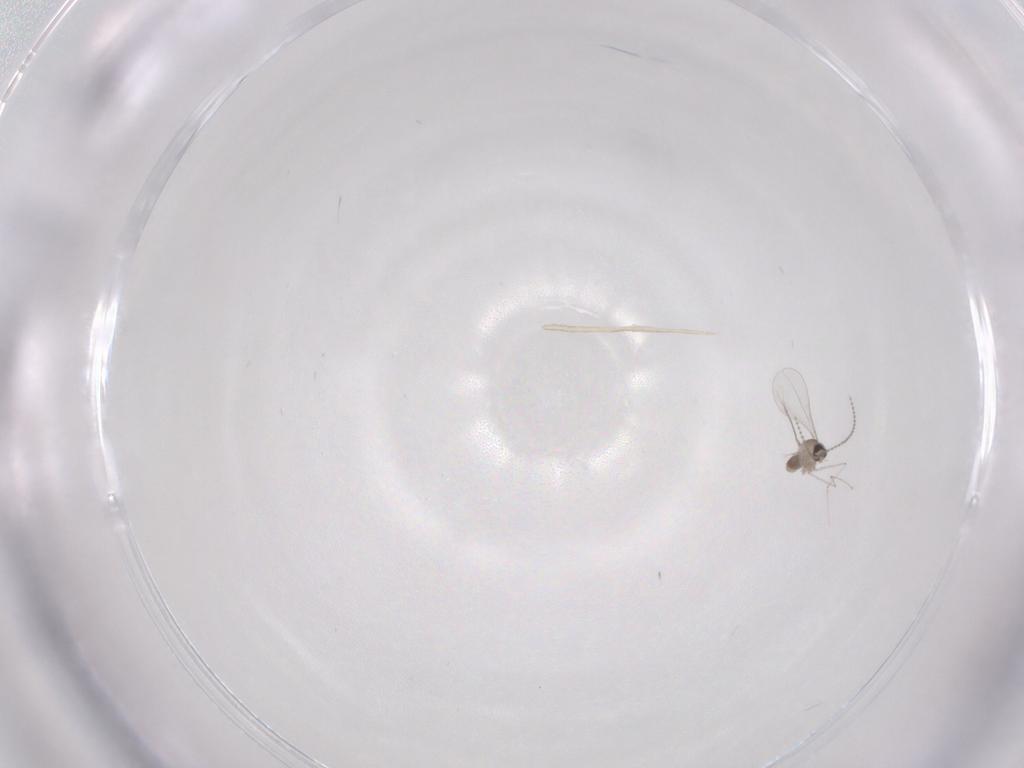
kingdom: Animalia
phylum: Arthropoda
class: Insecta
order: Diptera
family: Cecidomyiidae
